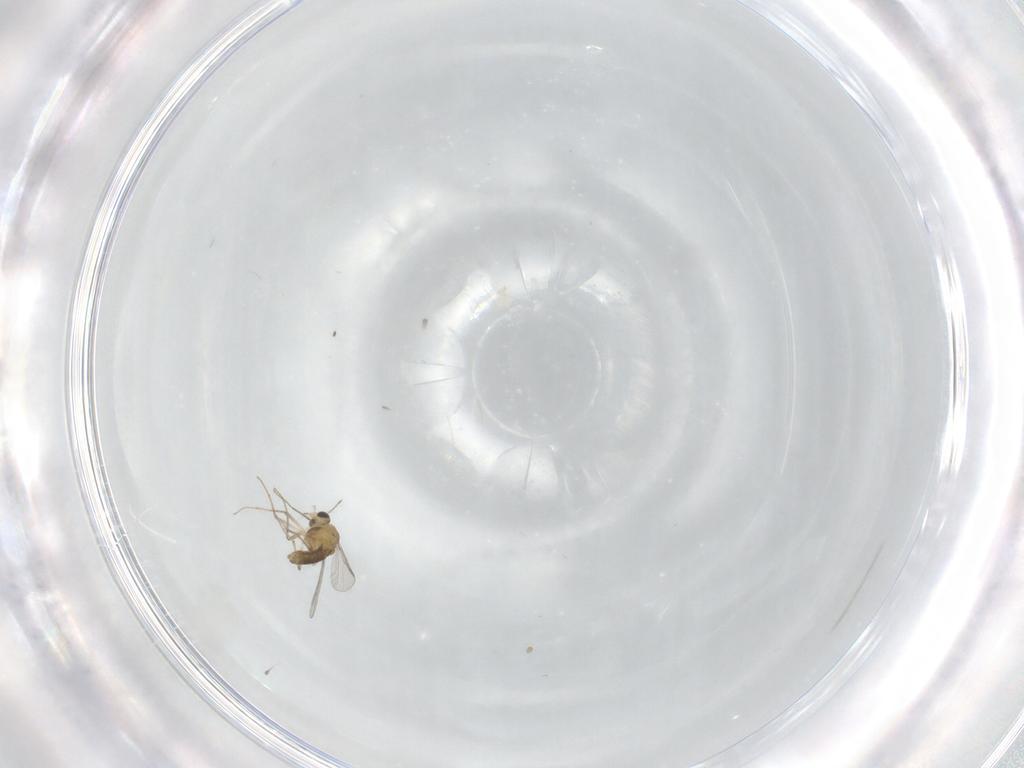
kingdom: Animalia
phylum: Arthropoda
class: Insecta
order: Diptera
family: Chironomidae
